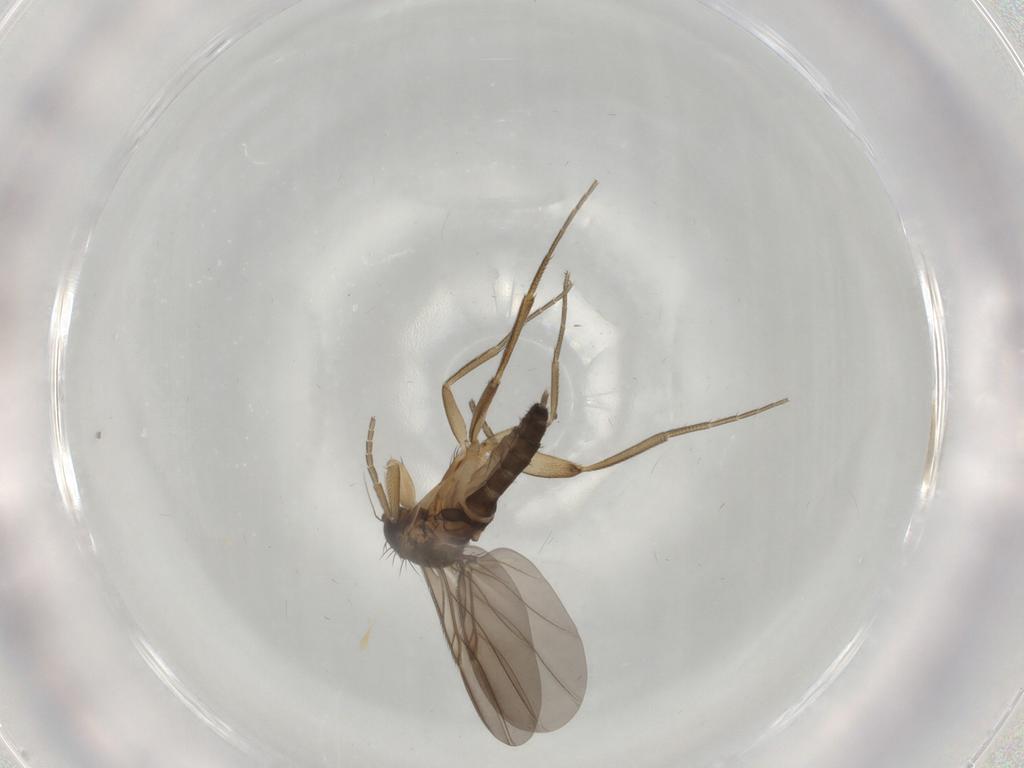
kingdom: Animalia
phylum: Arthropoda
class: Insecta
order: Diptera
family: Phoridae
